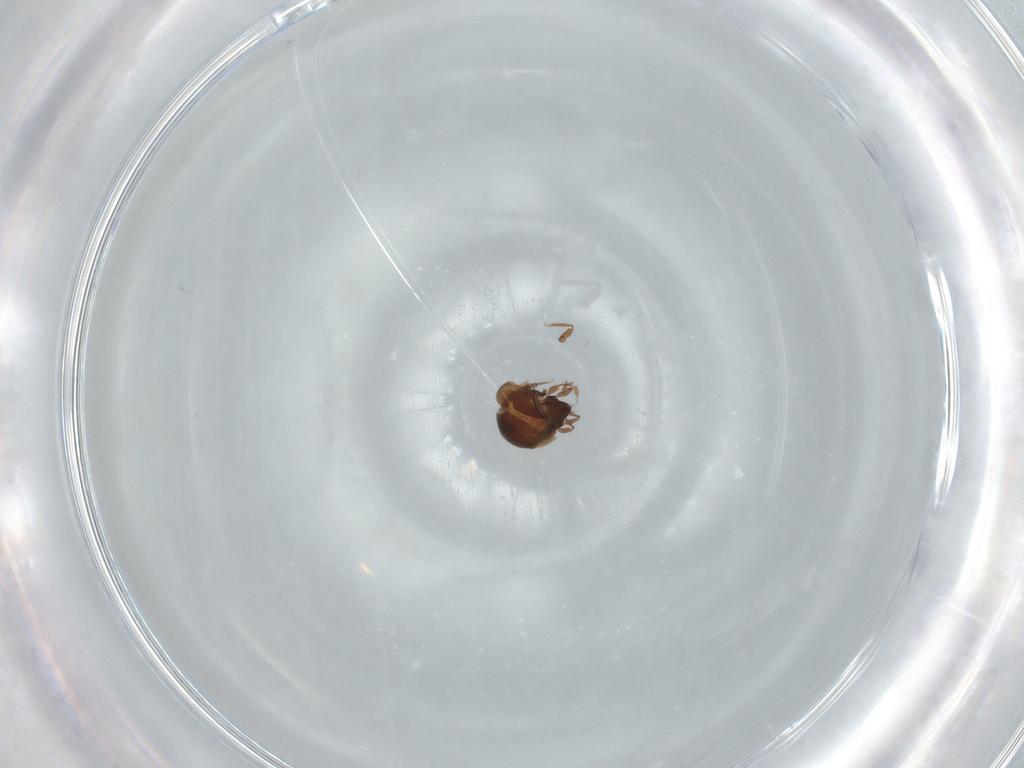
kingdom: Animalia
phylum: Arthropoda
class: Arachnida
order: Sarcoptiformes
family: Mochlozetidae
